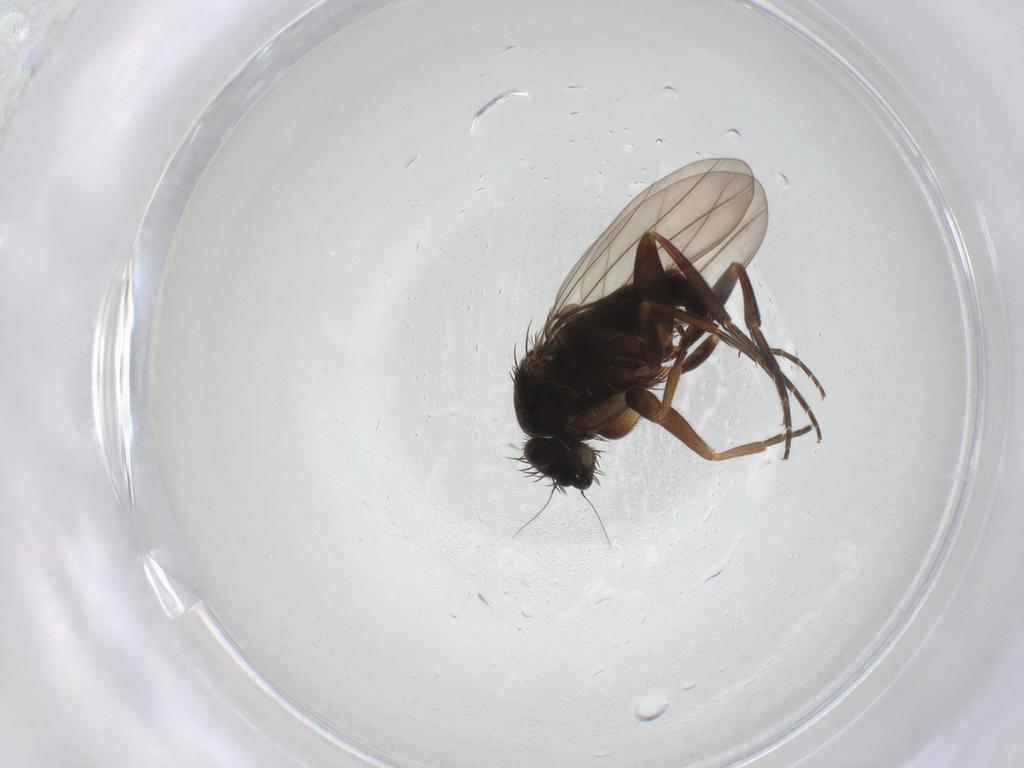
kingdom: Animalia
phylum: Arthropoda
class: Insecta
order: Diptera
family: Phoridae
